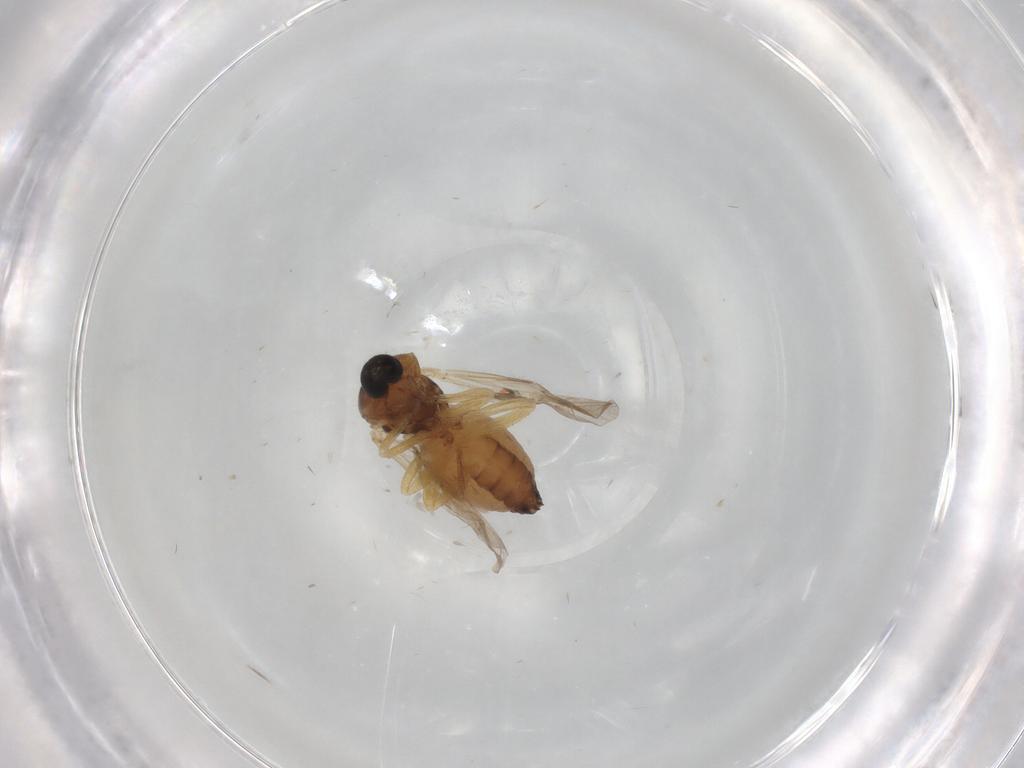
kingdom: Animalia
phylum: Arthropoda
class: Insecta
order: Diptera
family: Ceratopogonidae
